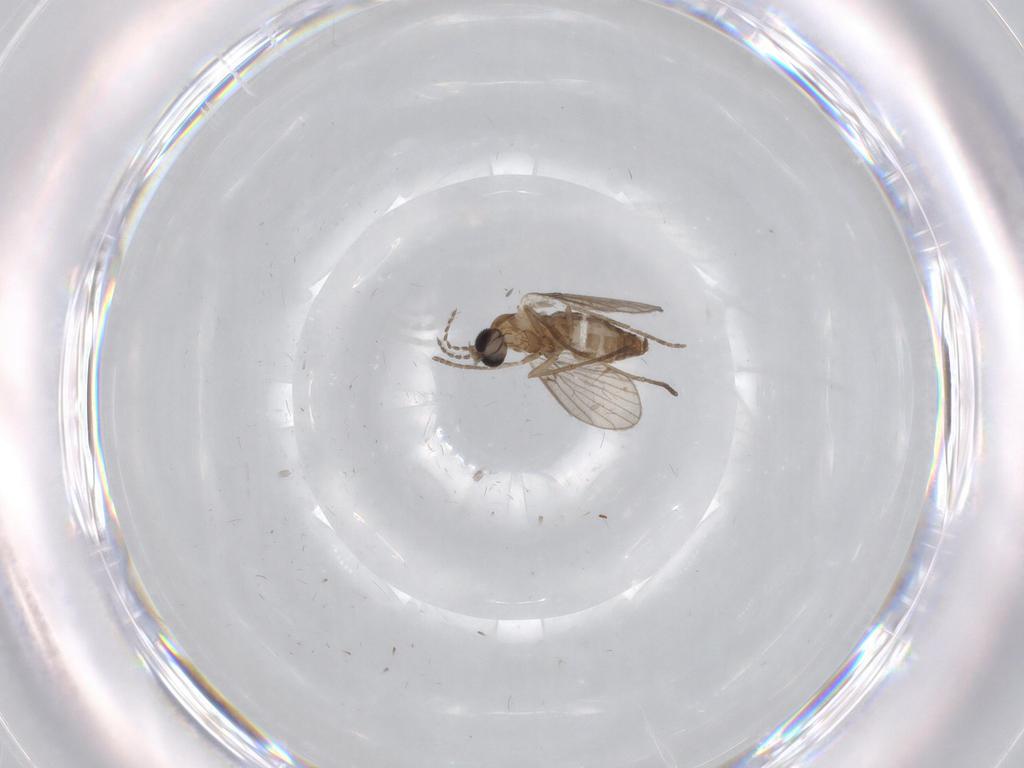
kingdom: Animalia
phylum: Arthropoda
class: Insecta
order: Diptera
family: Psychodidae
